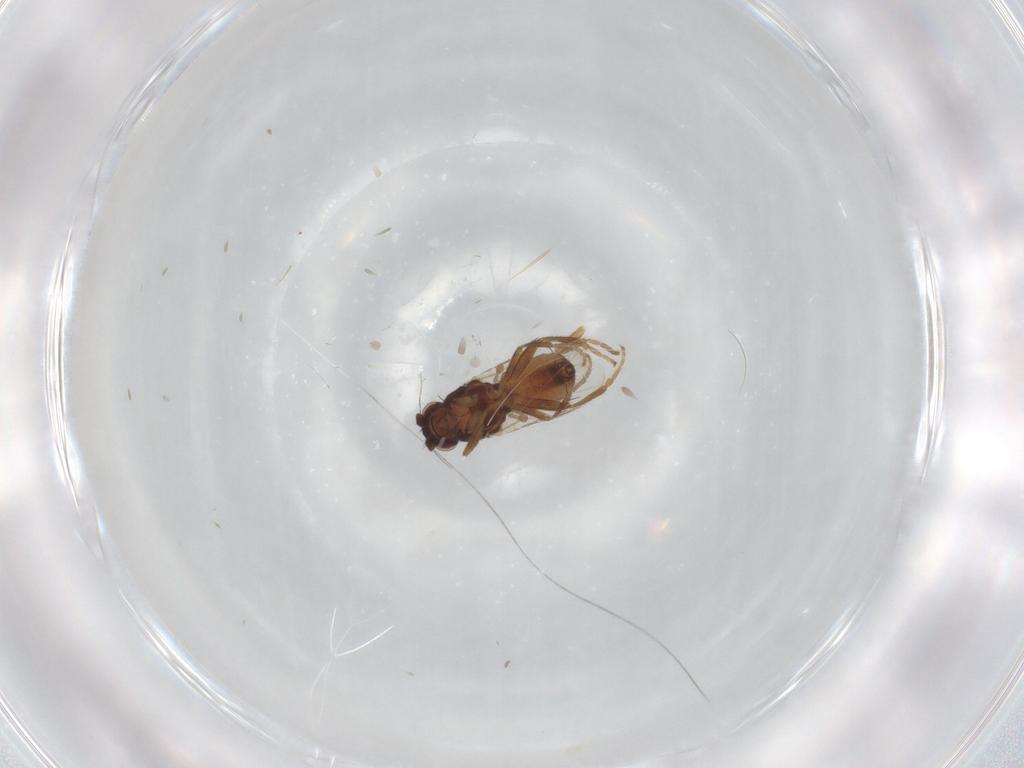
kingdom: Animalia
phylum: Arthropoda
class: Insecta
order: Diptera
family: Sphaeroceridae
